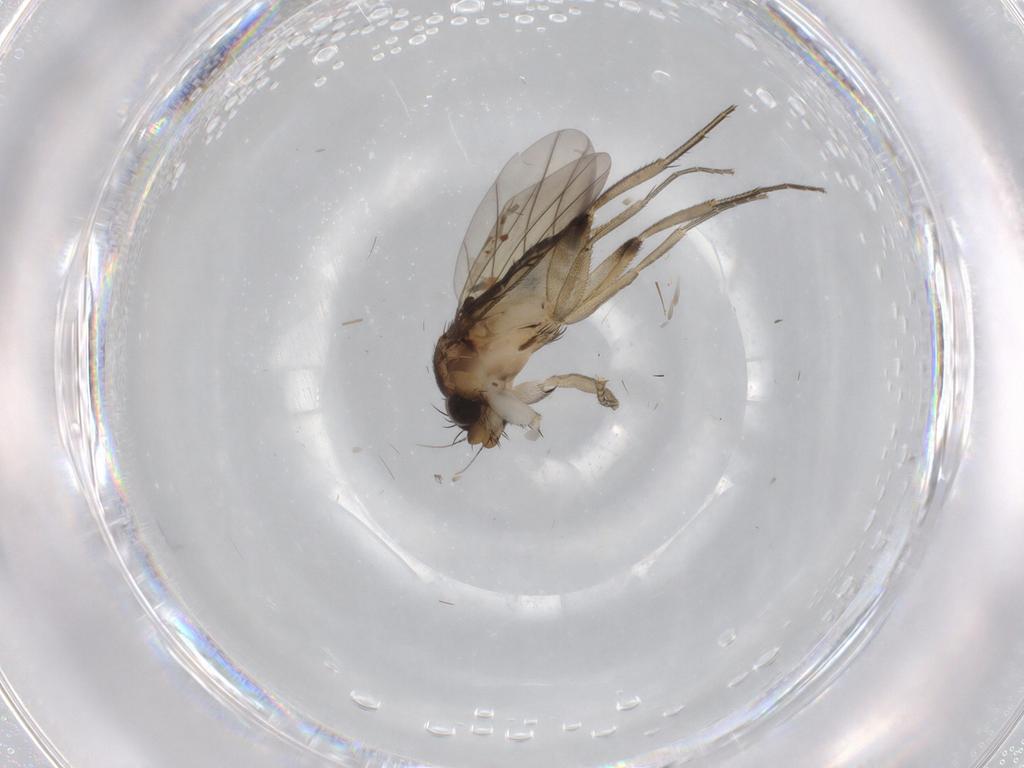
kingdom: Animalia
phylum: Arthropoda
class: Insecta
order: Diptera
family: Phoridae
